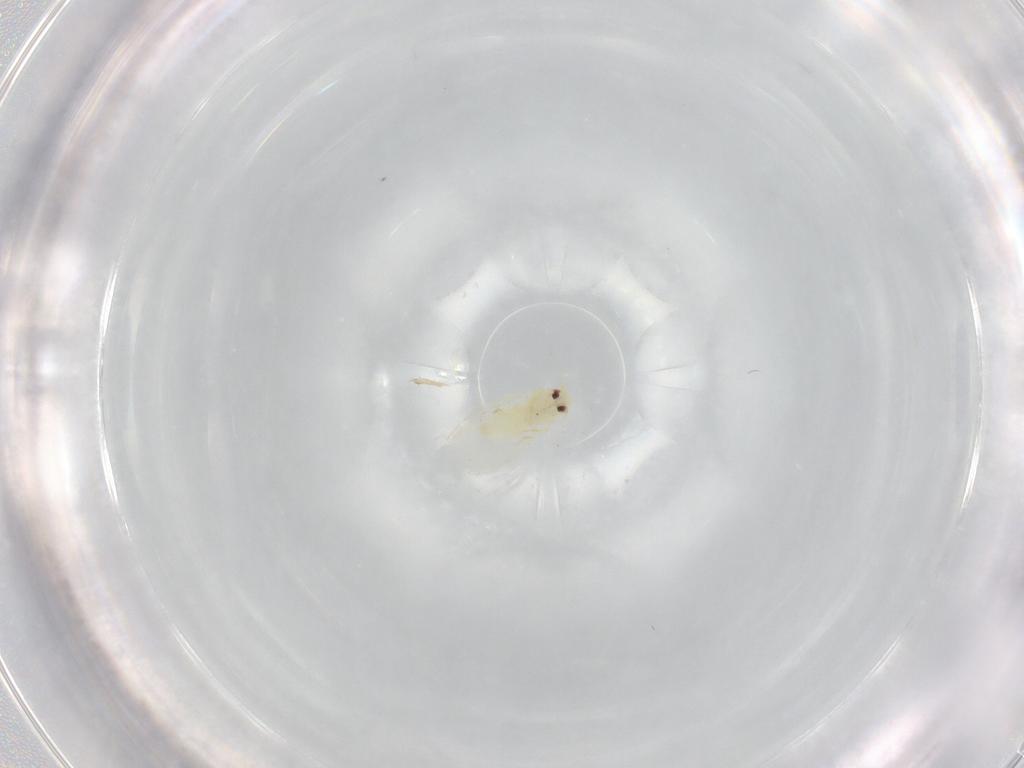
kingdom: Animalia
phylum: Arthropoda
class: Insecta
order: Hemiptera
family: Aleyrodidae
